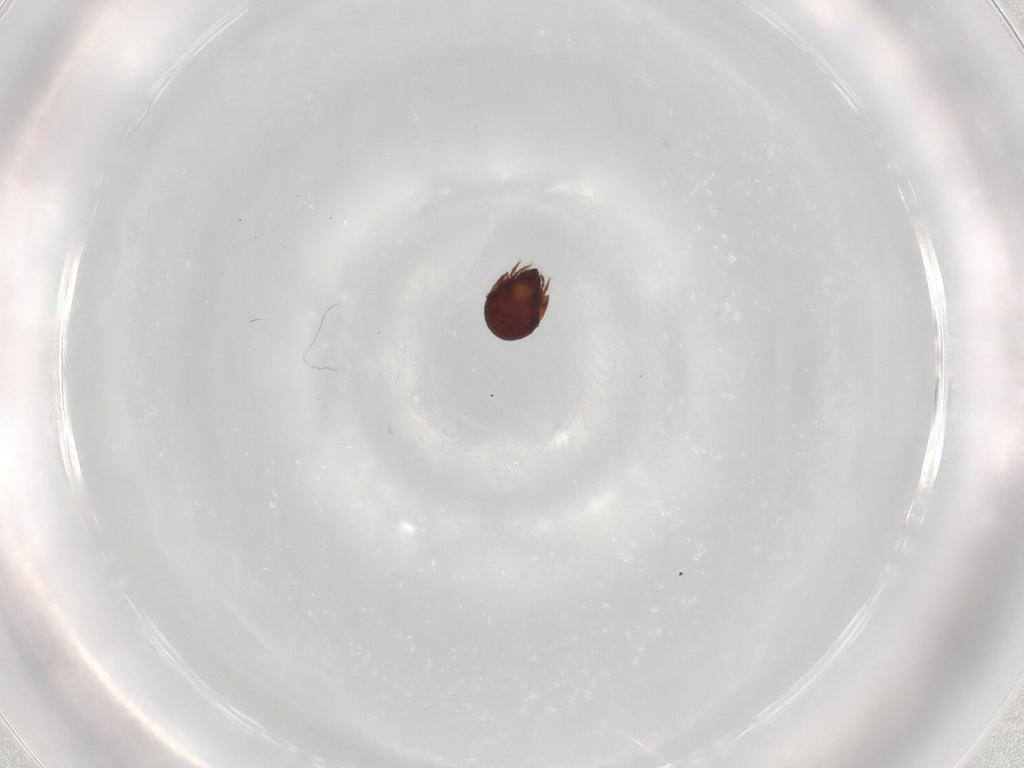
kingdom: Animalia
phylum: Arthropoda
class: Arachnida
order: Sarcoptiformes
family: Humerobatidae
